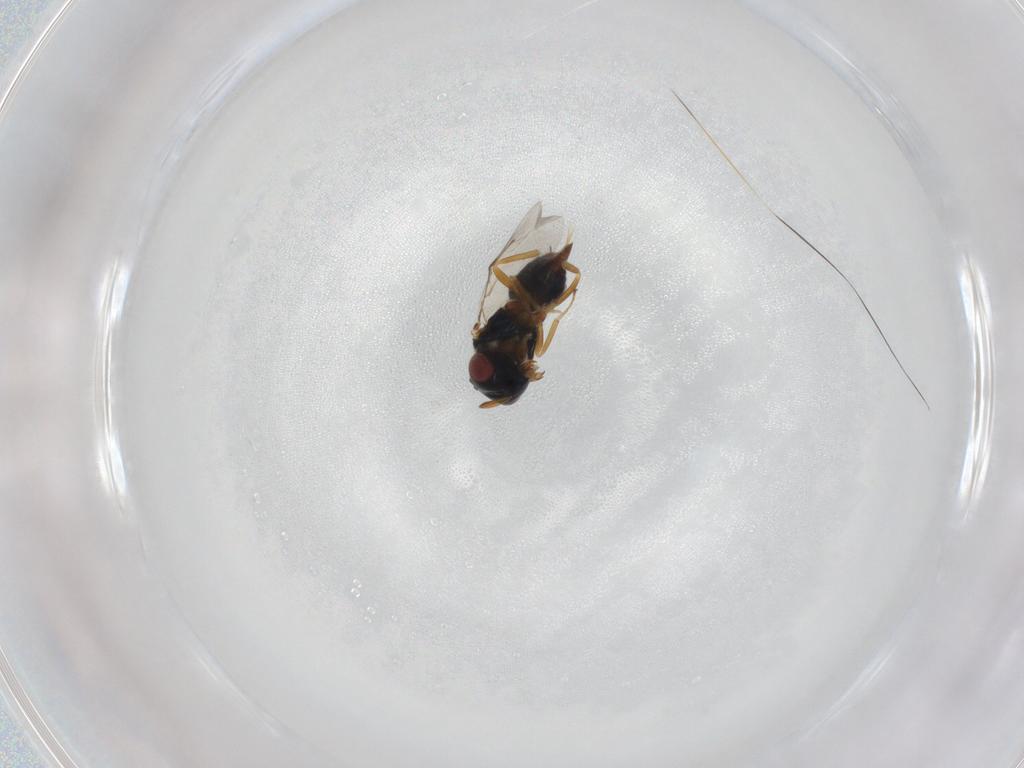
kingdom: Animalia
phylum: Arthropoda
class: Insecta
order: Hymenoptera
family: Pteromalidae
